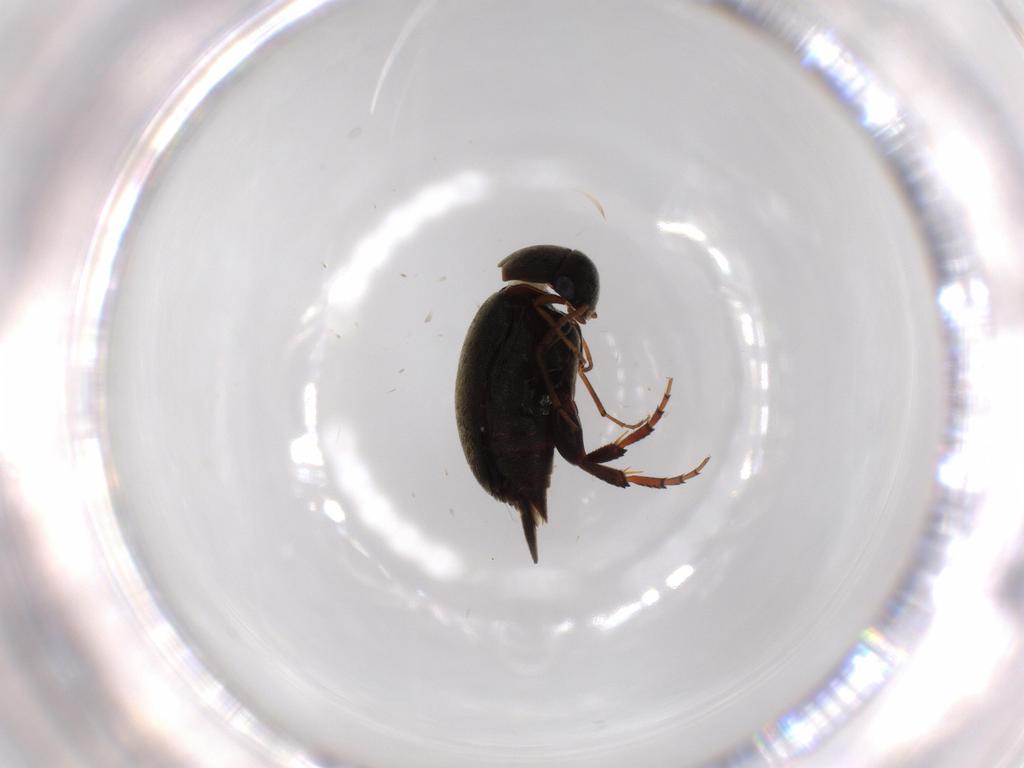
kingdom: Animalia
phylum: Arthropoda
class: Insecta
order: Coleoptera
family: Mordellidae
